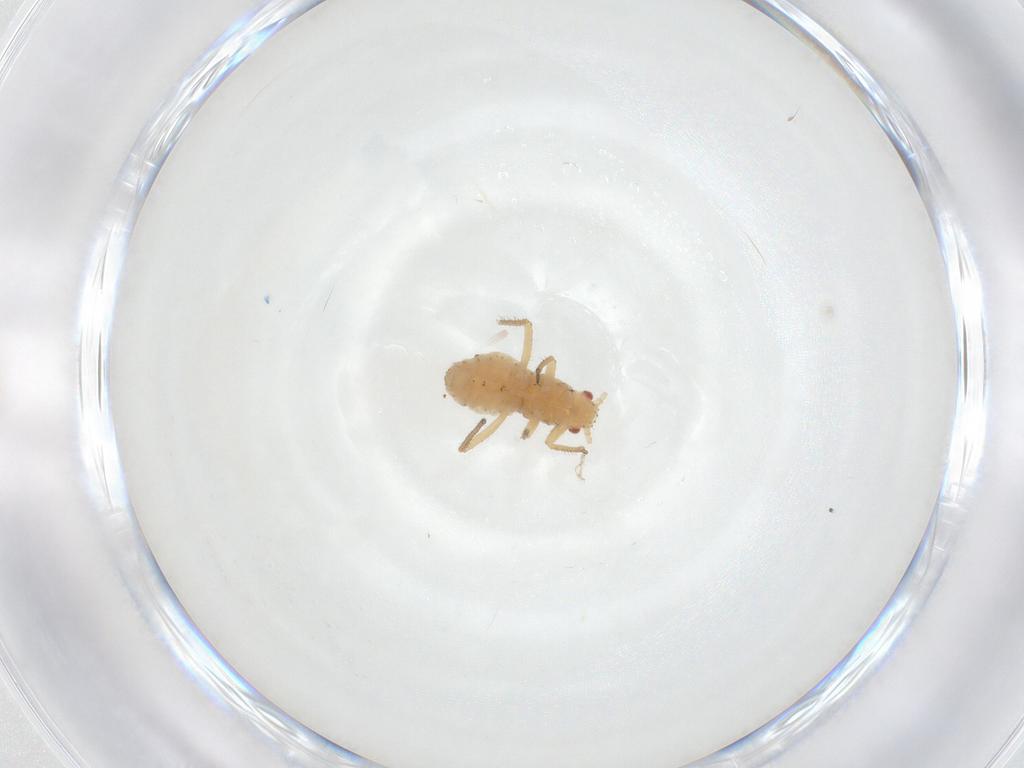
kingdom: Animalia
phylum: Arthropoda
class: Insecta
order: Hemiptera
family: Aphididae
